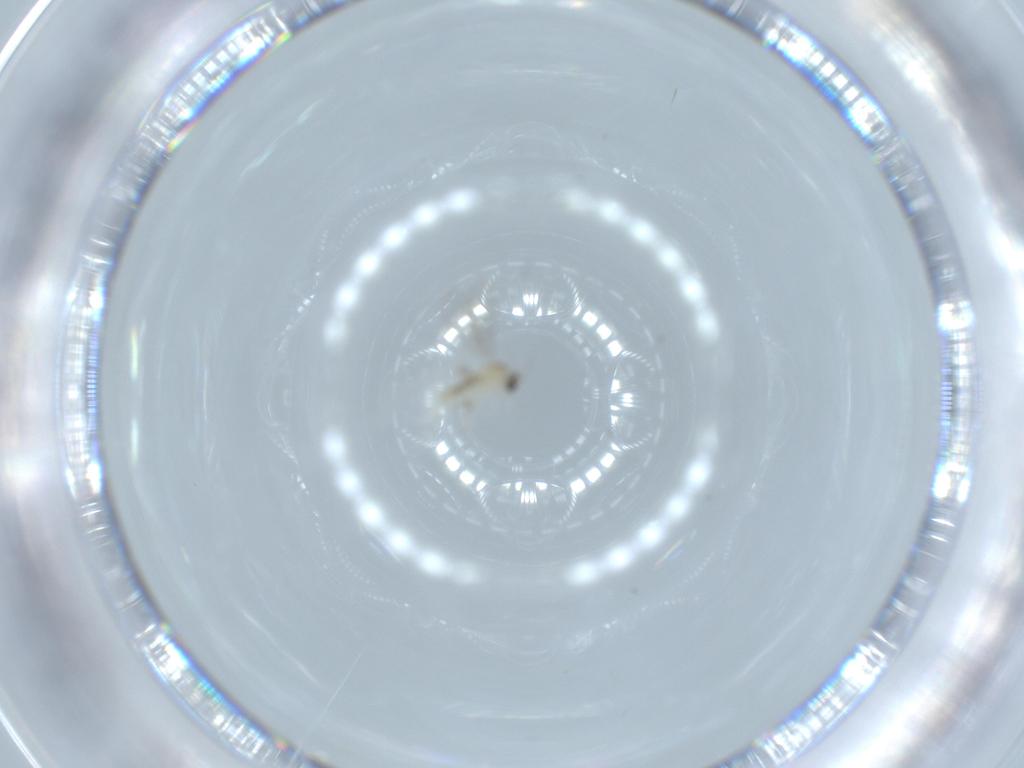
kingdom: Animalia
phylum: Arthropoda
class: Insecta
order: Diptera
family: Cecidomyiidae
